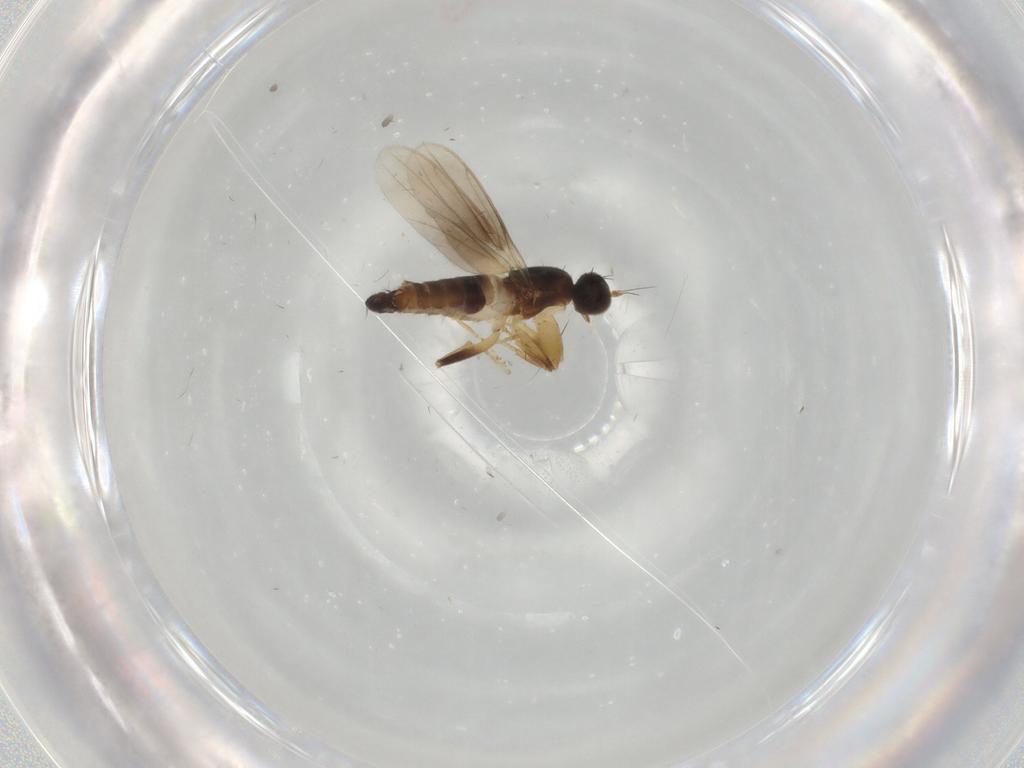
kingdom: Animalia
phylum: Arthropoda
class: Insecta
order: Diptera
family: Hybotidae
